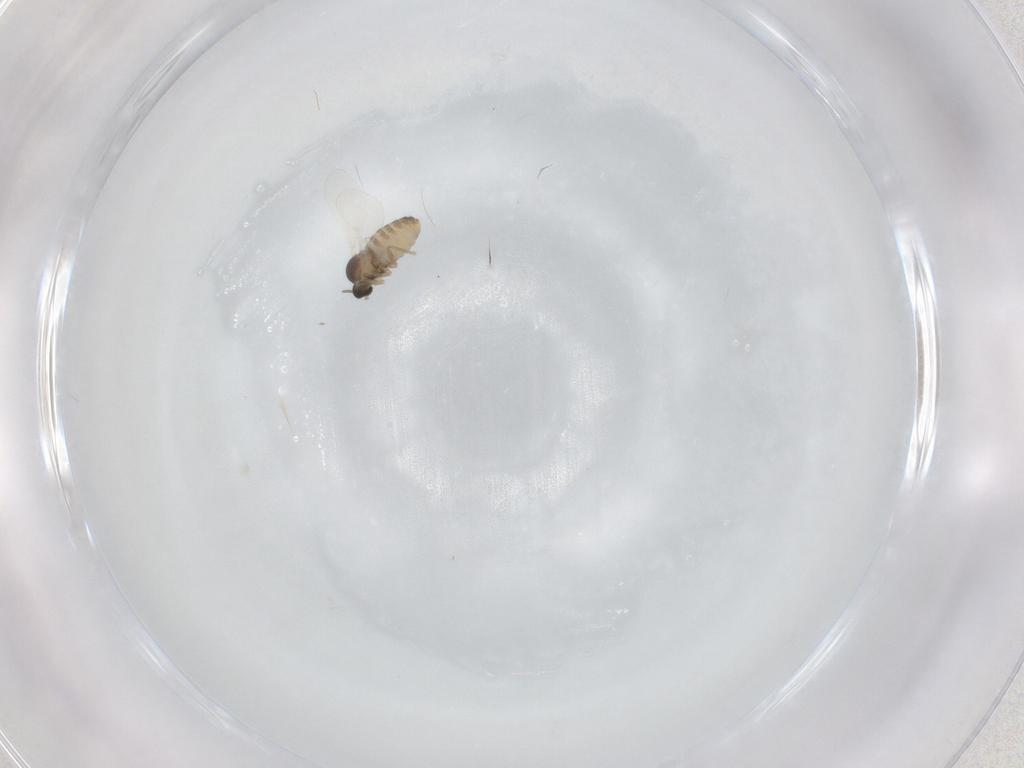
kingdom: Animalia
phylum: Arthropoda
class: Insecta
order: Diptera
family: Cecidomyiidae
